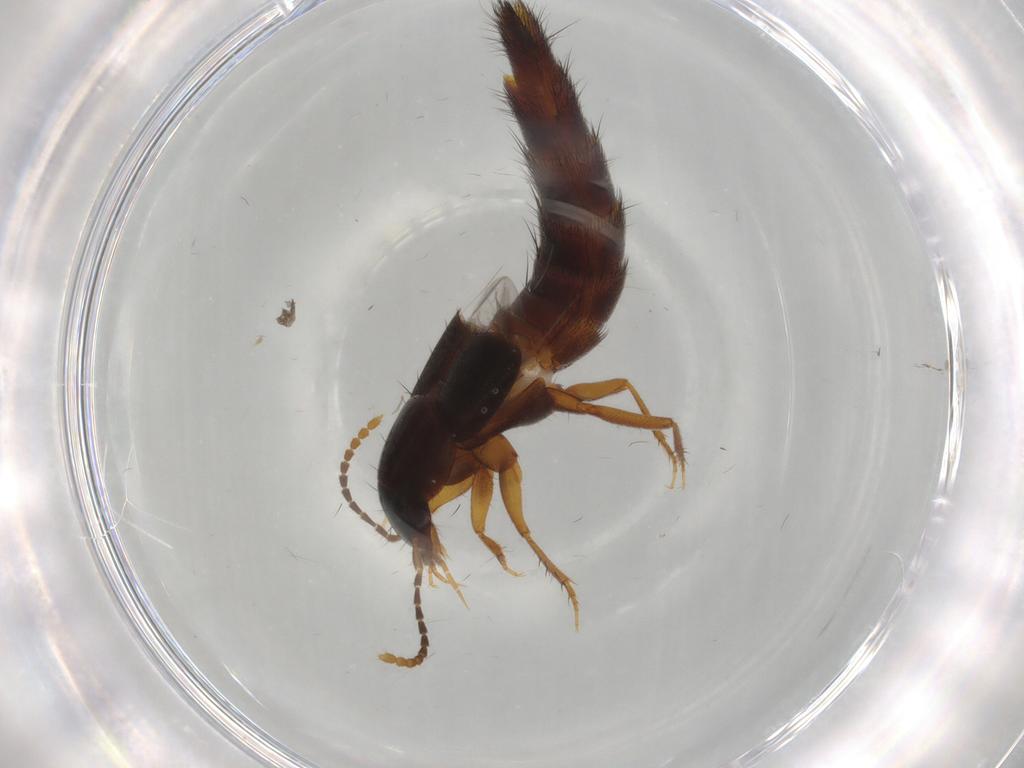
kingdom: Animalia
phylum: Arthropoda
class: Insecta
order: Coleoptera
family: Staphylinidae
